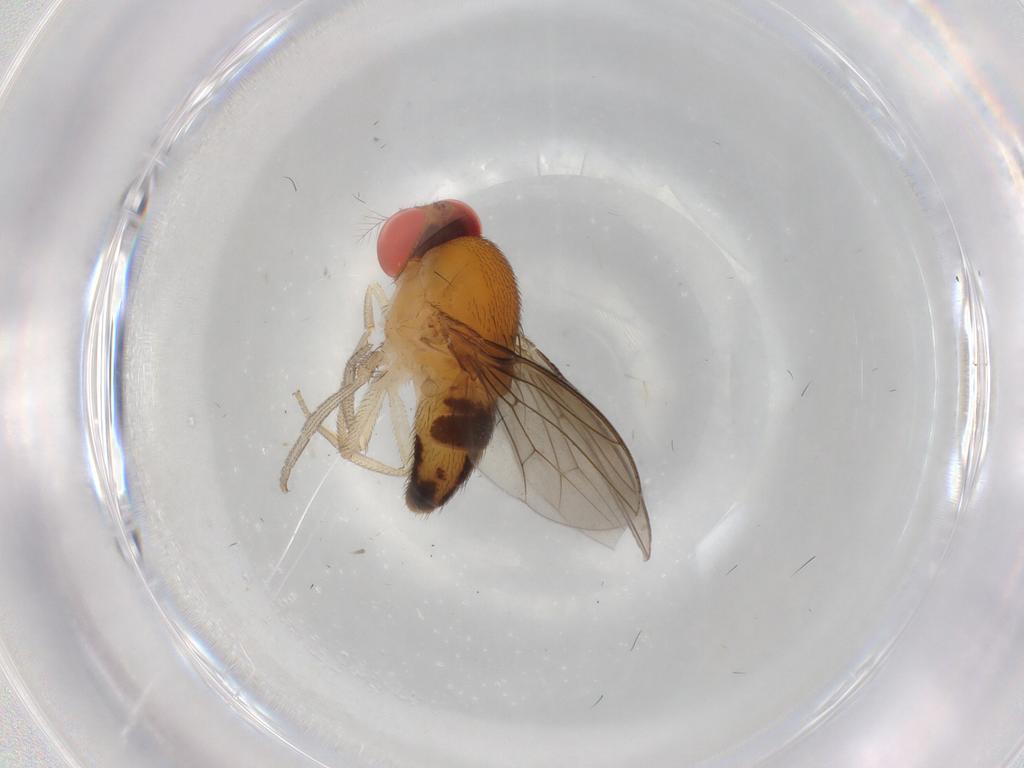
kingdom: Animalia
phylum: Arthropoda
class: Insecta
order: Diptera
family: Drosophilidae
